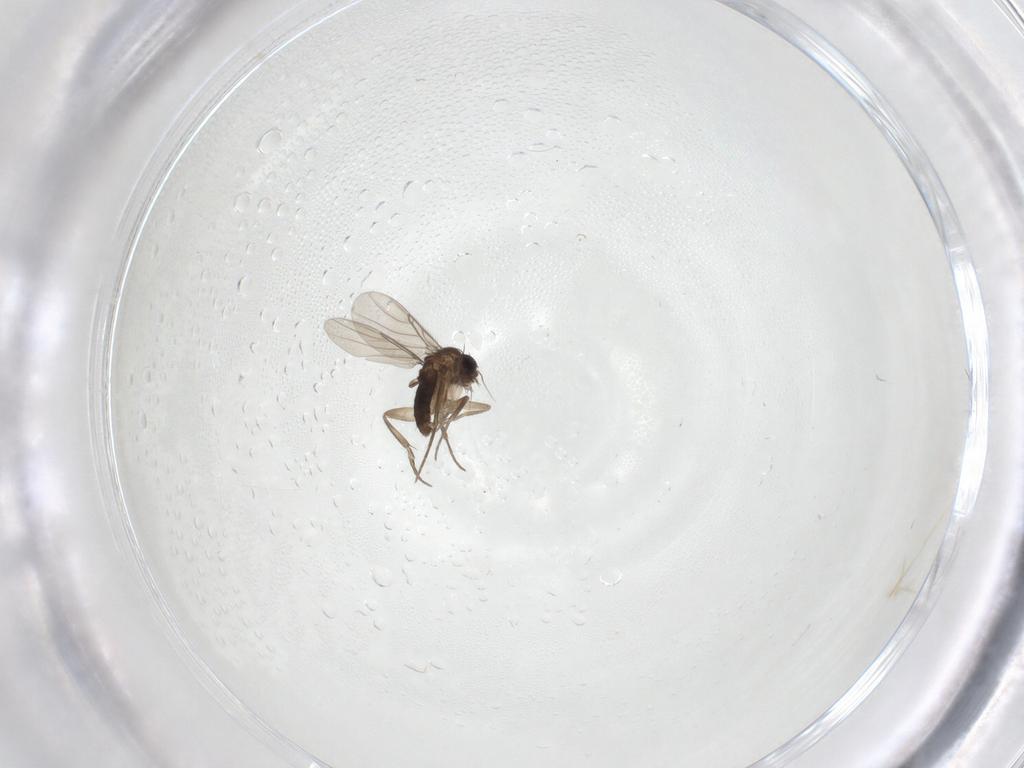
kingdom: Animalia
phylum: Arthropoda
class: Insecta
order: Diptera
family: Phoridae
